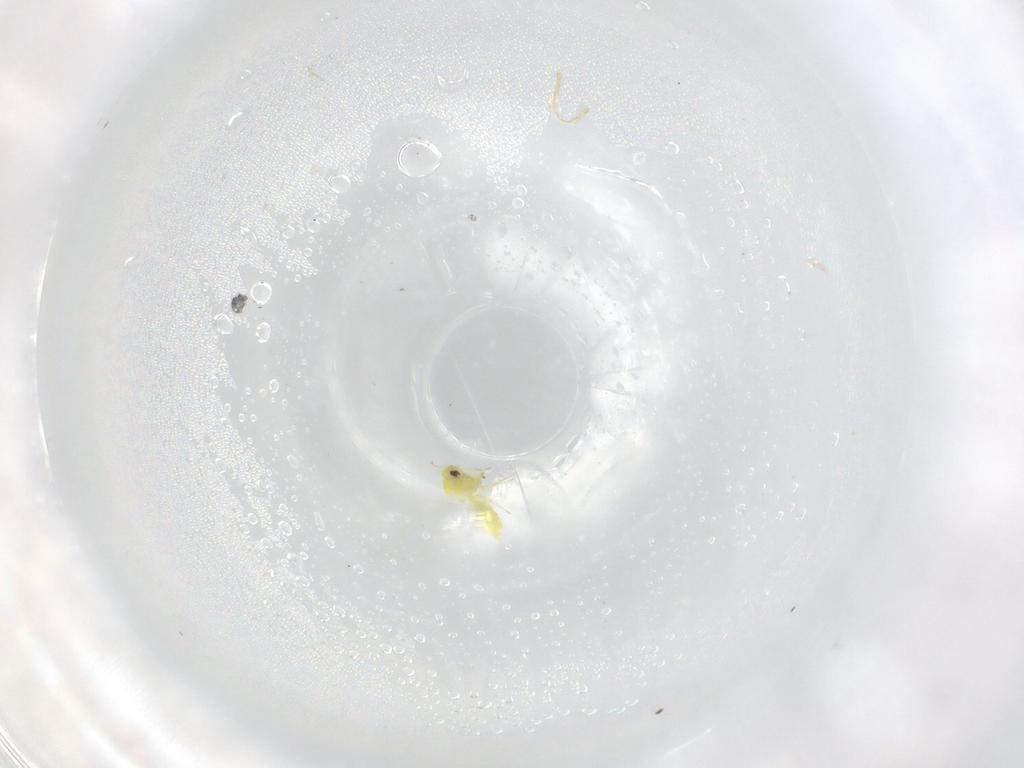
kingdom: Animalia
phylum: Arthropoda
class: Insecta
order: Hemiptera
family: Aleyrodidae
